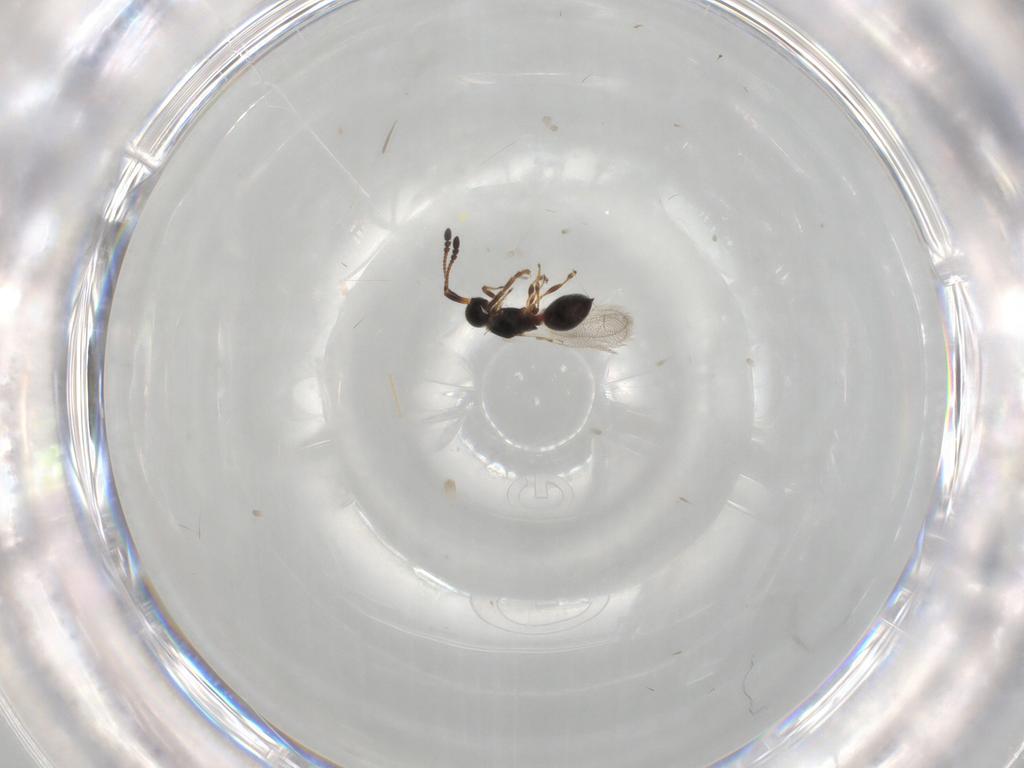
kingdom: Animalia
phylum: Arthropoda
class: Insecta
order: Hymenoptera
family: Diapriidae
